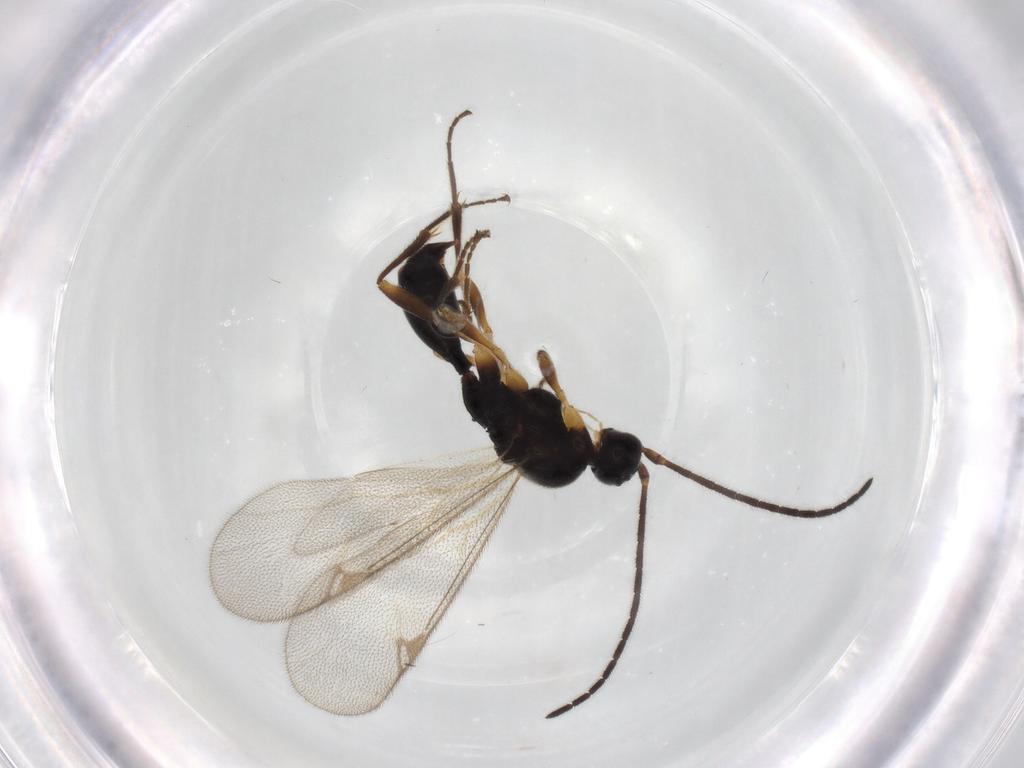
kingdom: Animalia
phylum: Arthropoda
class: Insecta
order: Hymenoptera
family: Proctotrupidae
